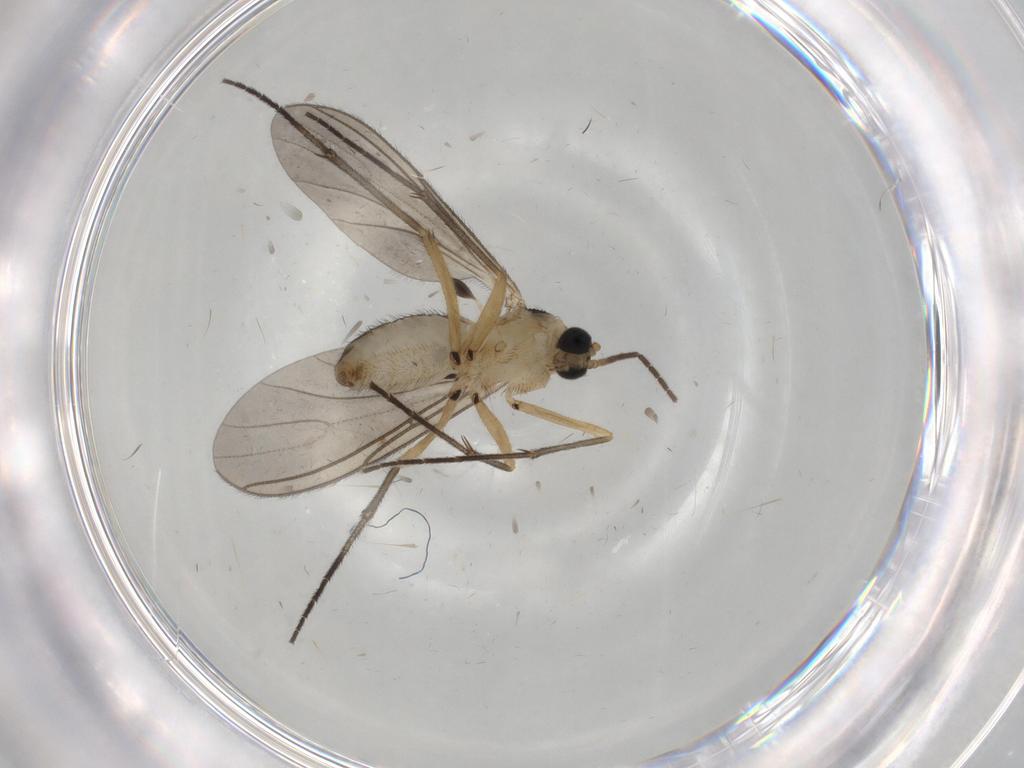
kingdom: Animalia
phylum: Arthropoda
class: Insecta
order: Diptera
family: Sciaridae
